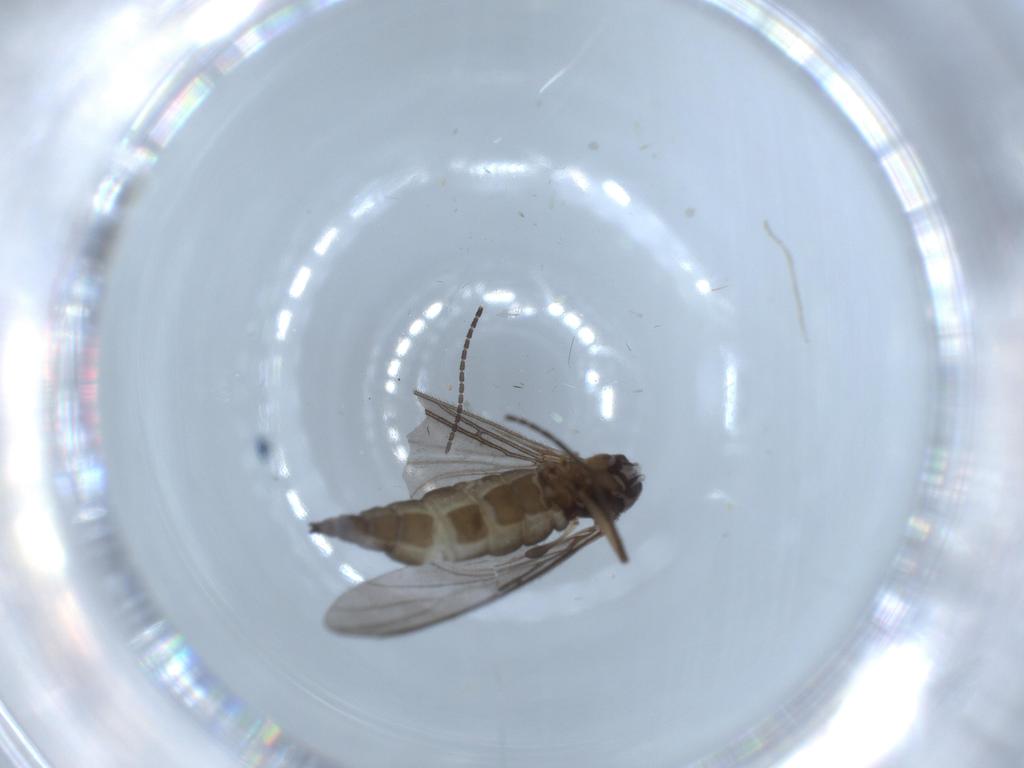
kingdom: Animalia
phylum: Arthropoda
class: Insecta
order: Diptera
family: Sciaridae
